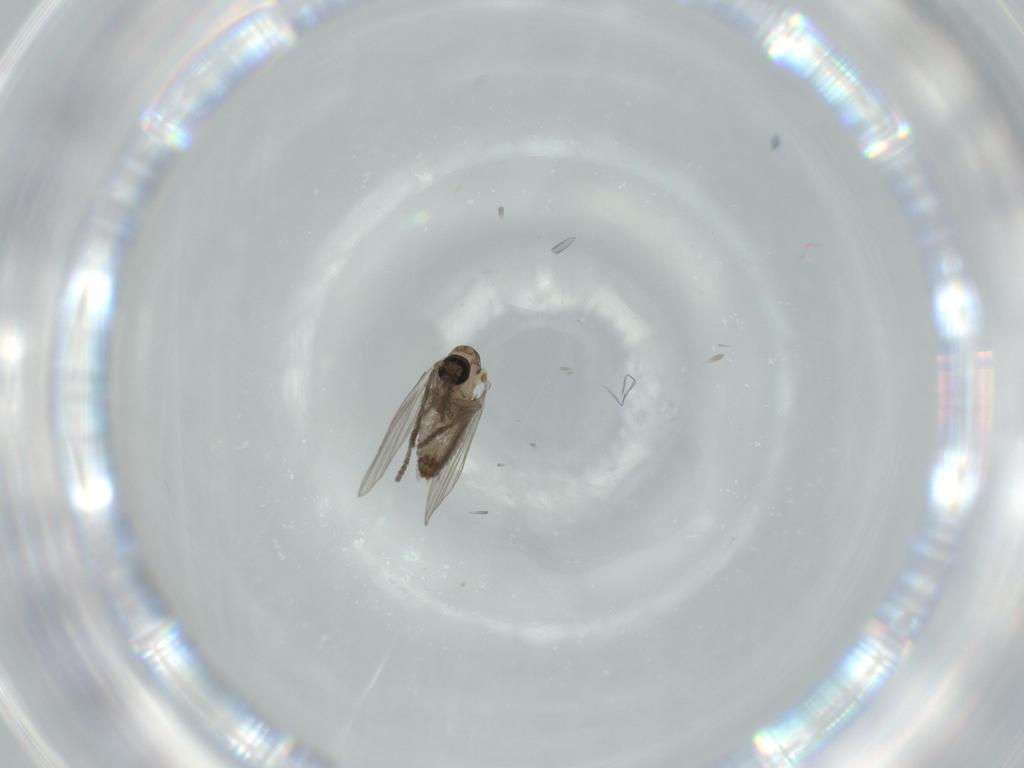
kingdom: Animalia
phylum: Arthropoda
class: Insecta
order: Diptera
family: Psychodidae
